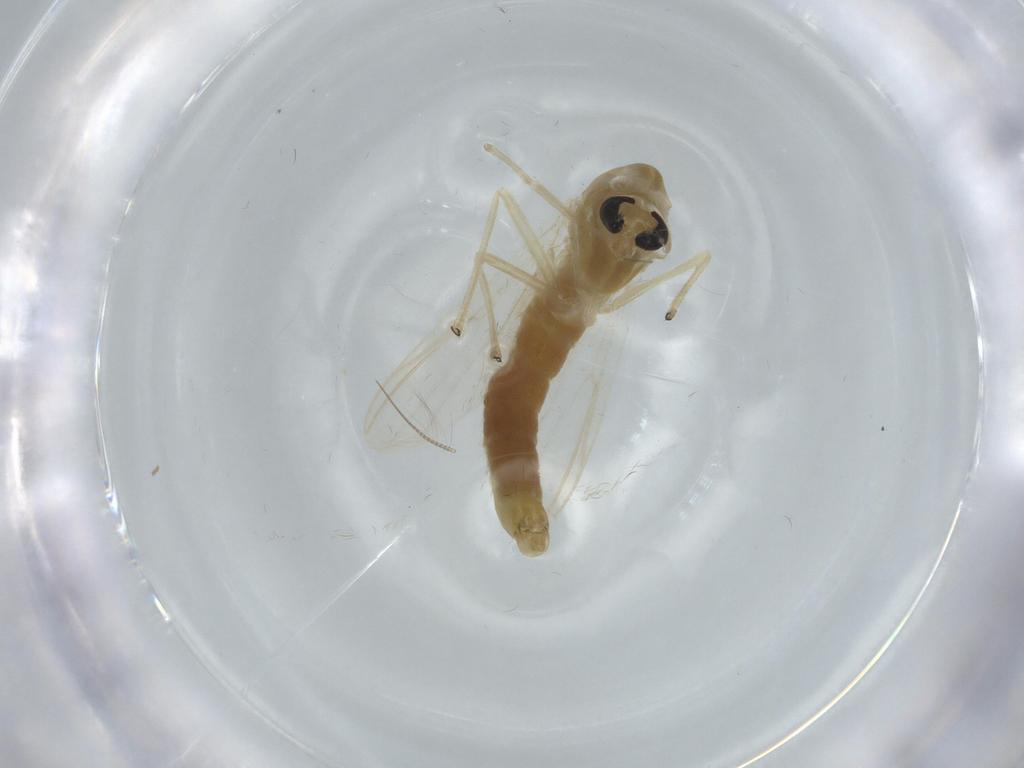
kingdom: Animalia
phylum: Arthropoda
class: Insecta
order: Diptera
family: Chironomidae
